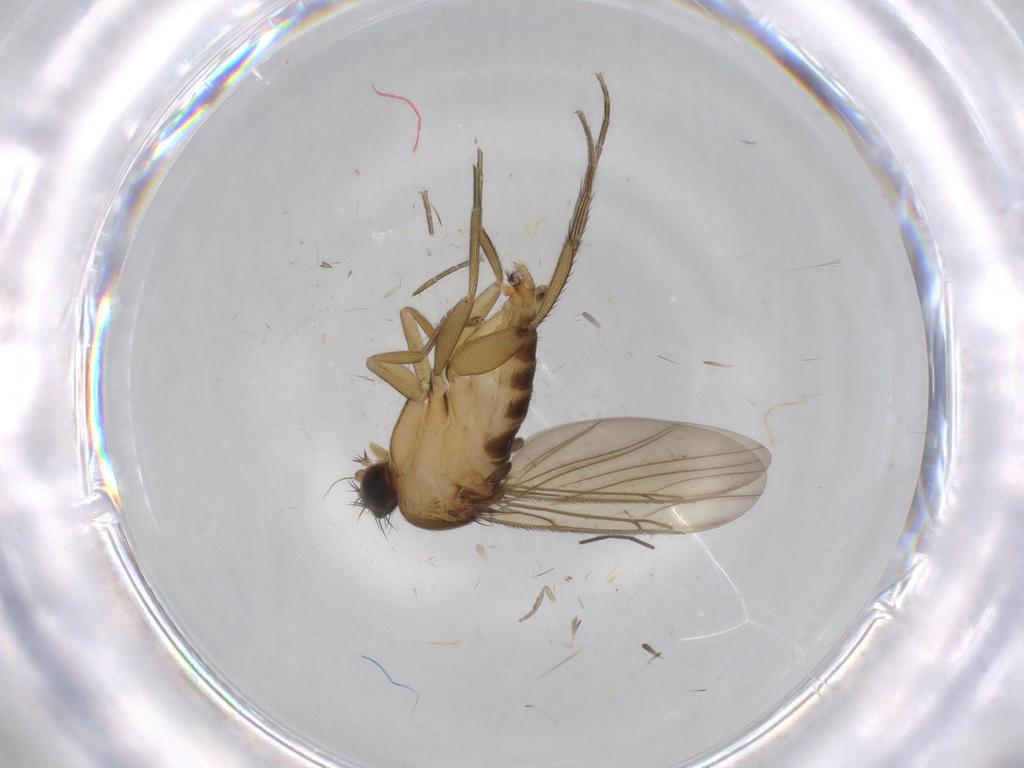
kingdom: Animalia
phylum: Arthropoda
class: Insecta
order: Diptera
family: Phoridae
